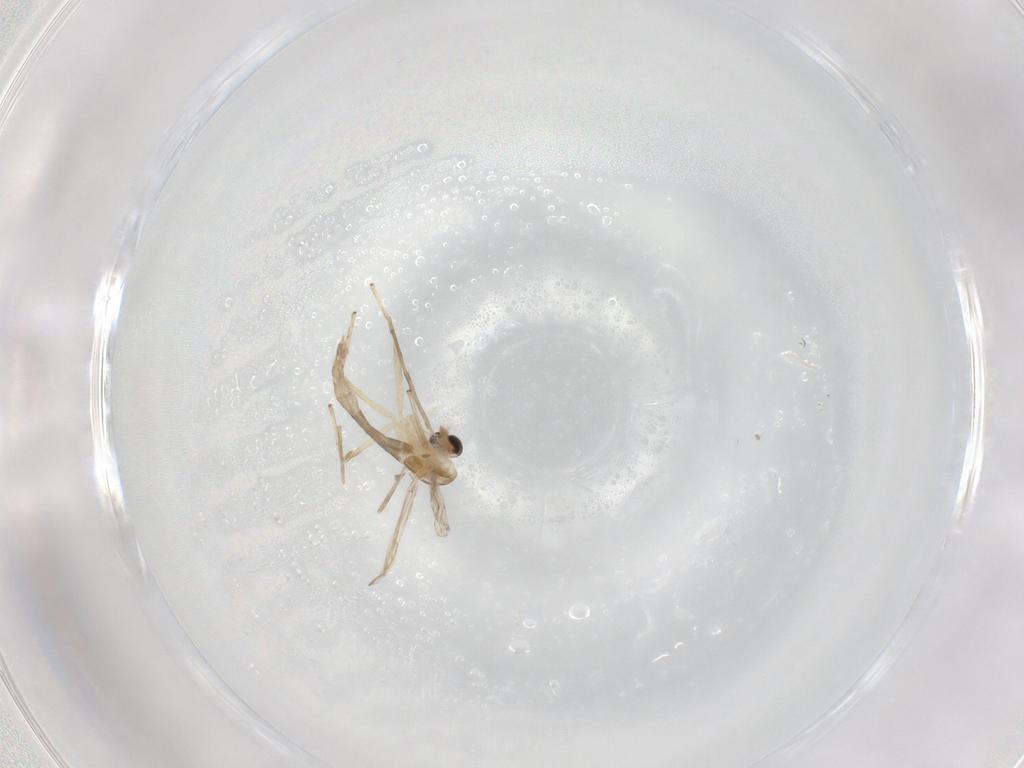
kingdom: Animalia
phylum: Arthropoda
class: Insecta
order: Diptera
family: Chironomidae
